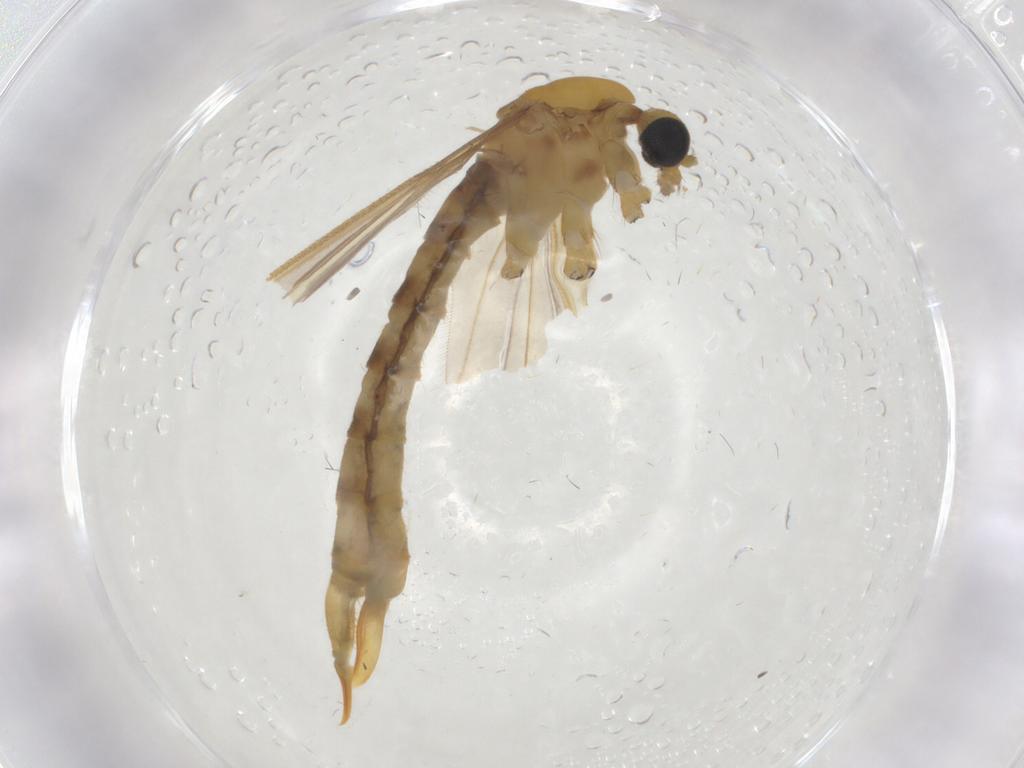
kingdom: Animalia
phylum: Arthropoda
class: Insecta
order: Diptera
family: Limoniidae
